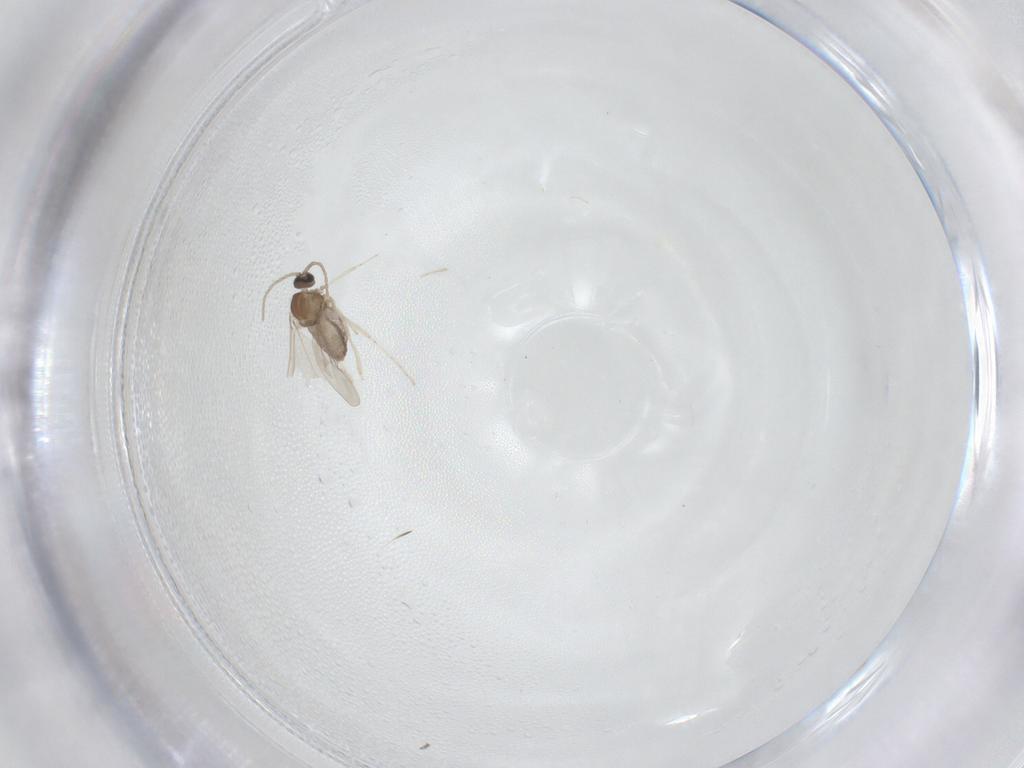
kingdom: Animalia
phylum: Arthropoda
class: Insecta
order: Diptera
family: Cecidomyiidae
